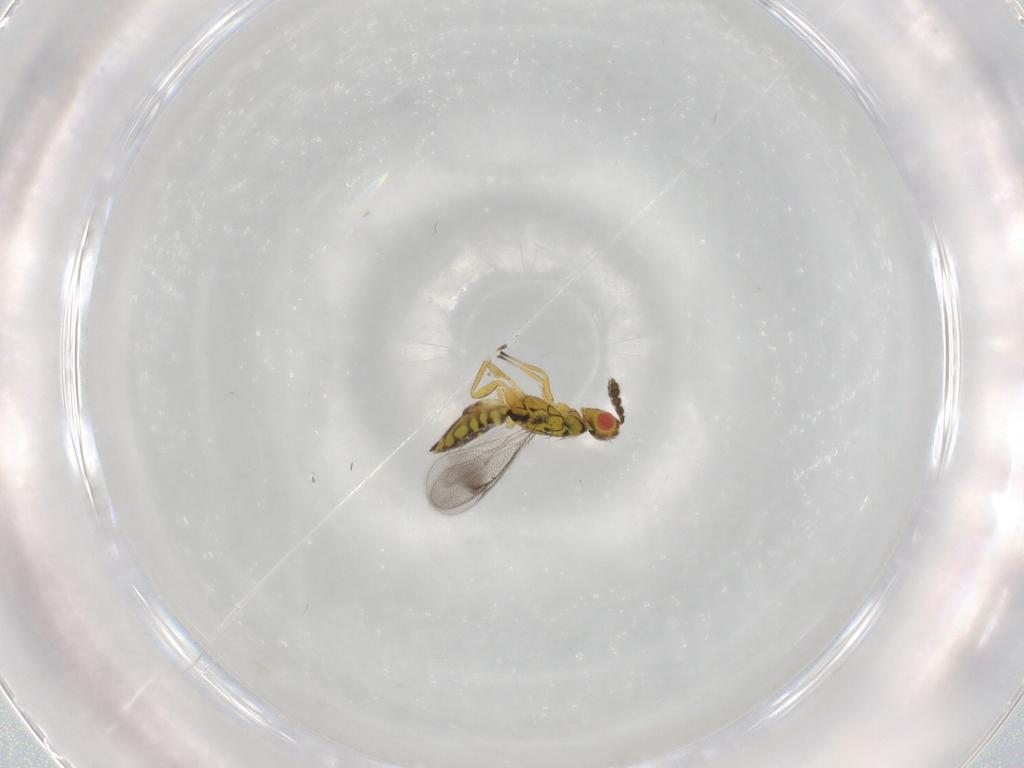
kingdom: Animalia
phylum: Arthropoda
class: Insecta
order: Hymenoptera
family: Eulophidae
